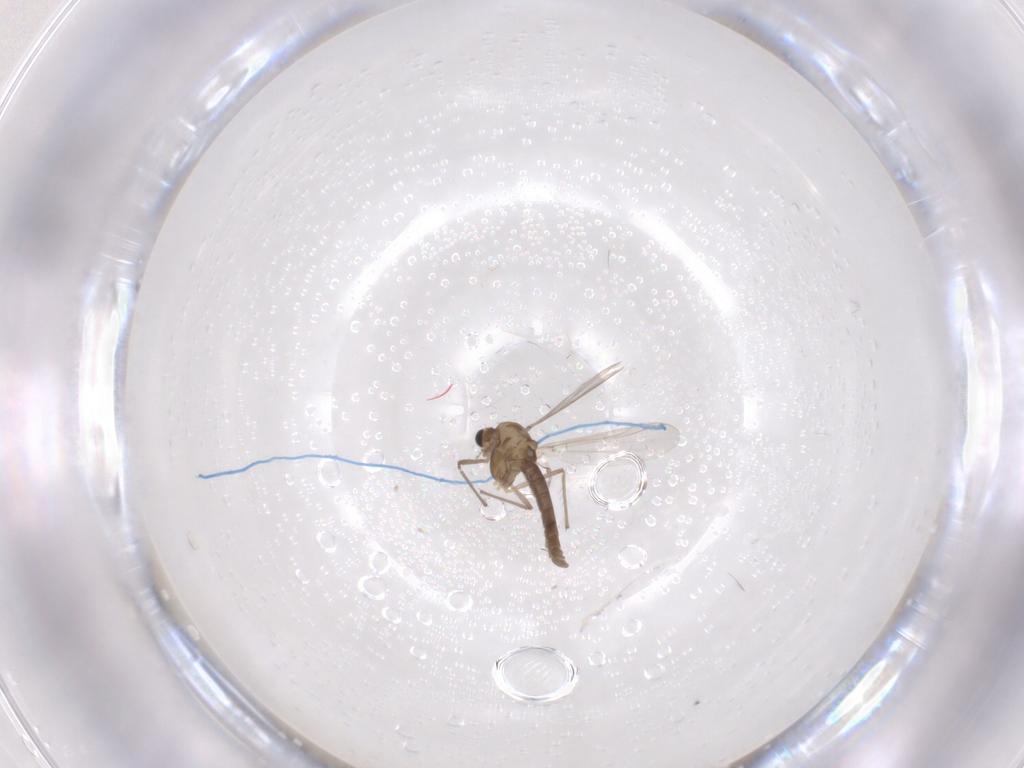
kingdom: Animalia
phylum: Arthropoda
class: Insecta
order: Diptera
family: Chironomidae
